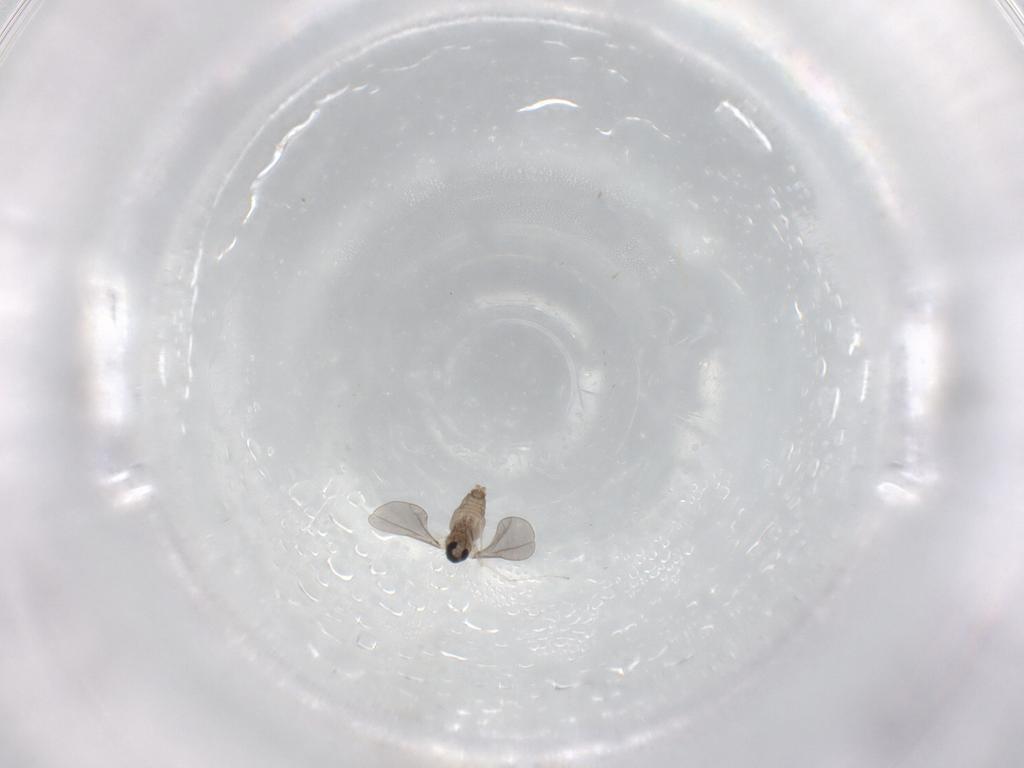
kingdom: Animalia
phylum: Arthropoda
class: Insecta
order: Diptera
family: Cecidomyiidae
